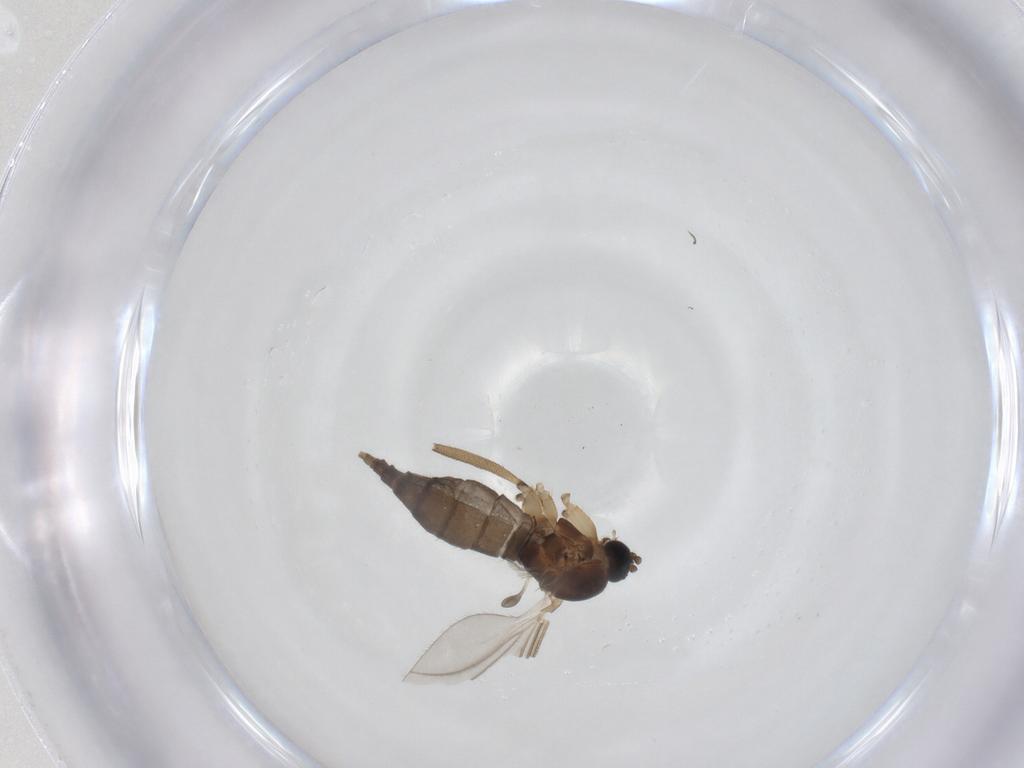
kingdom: Animalia
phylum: Arthropoda
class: Insecta
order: Diptera
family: Sciaridae
